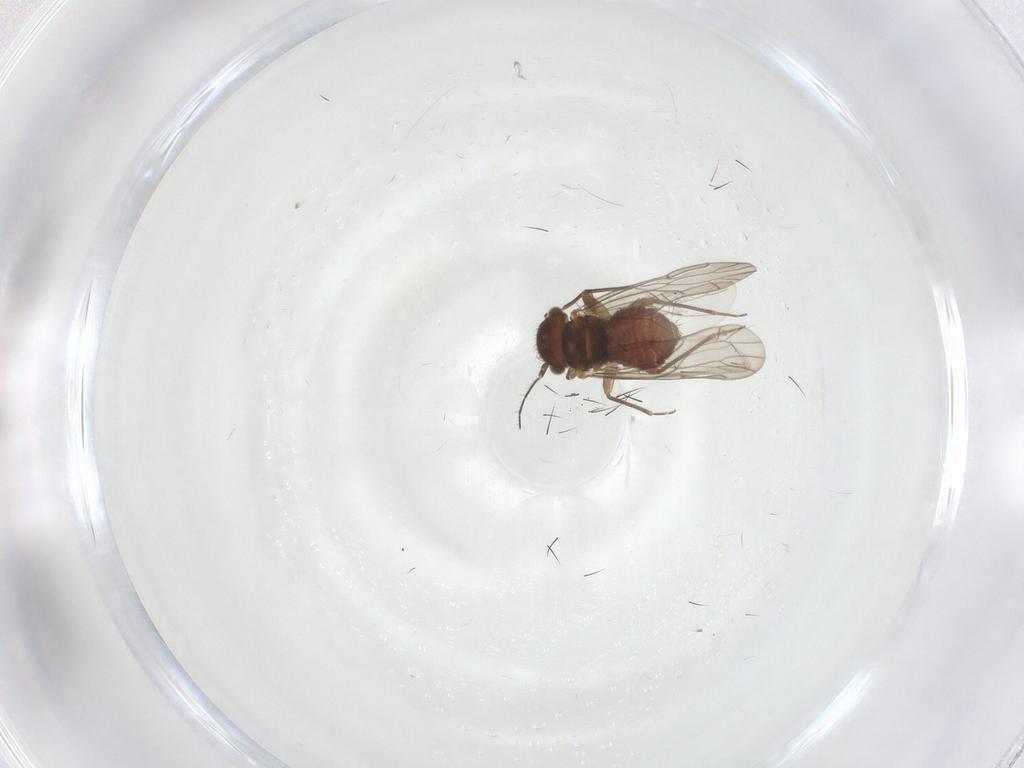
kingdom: Animalia
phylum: Arthropoda
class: Insecta
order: Psocodea
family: Ectopsocidae
